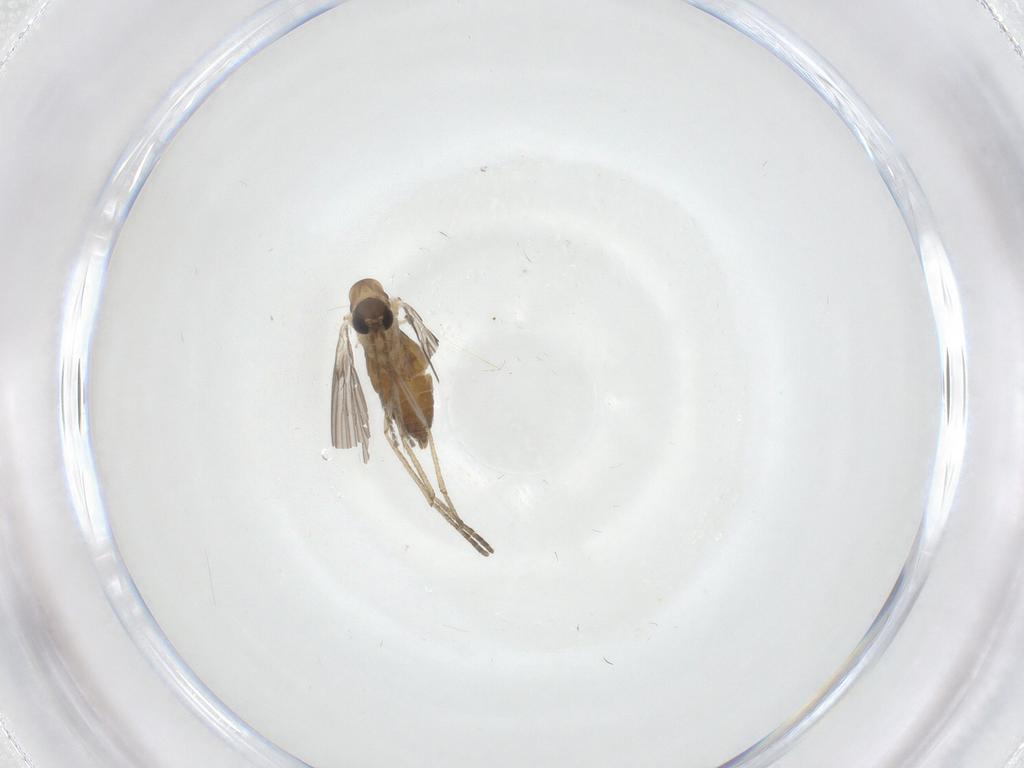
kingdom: Animalia
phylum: Arthropoda
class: Insecta
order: Diptera
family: Cecidomyiidae
